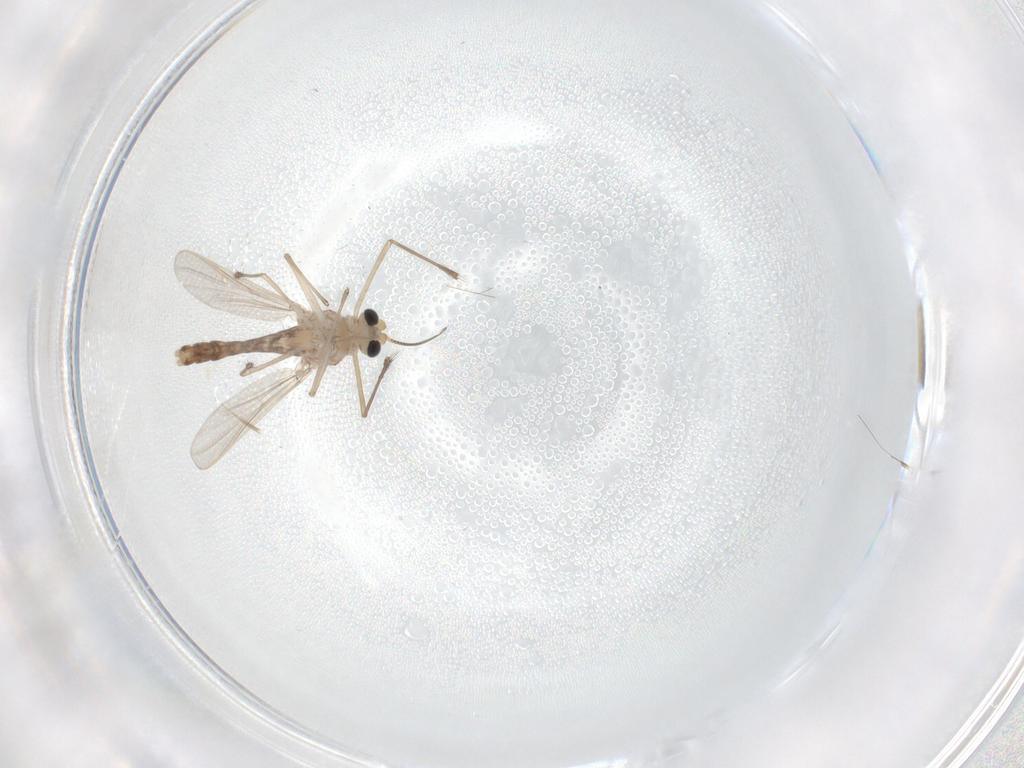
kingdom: Animalia
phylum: Arthropoda
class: Insecta
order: Diptera
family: Chironomidae
